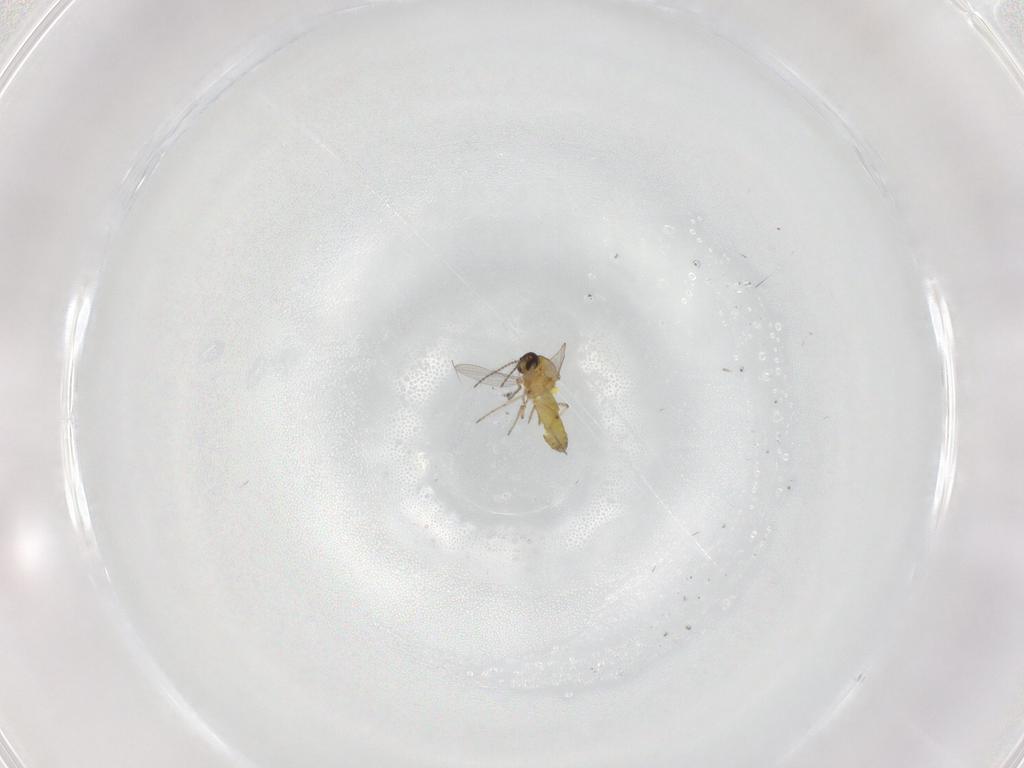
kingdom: Animalia
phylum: Arthropoda
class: Insecta
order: Diptera
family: Ceratopogonidae
